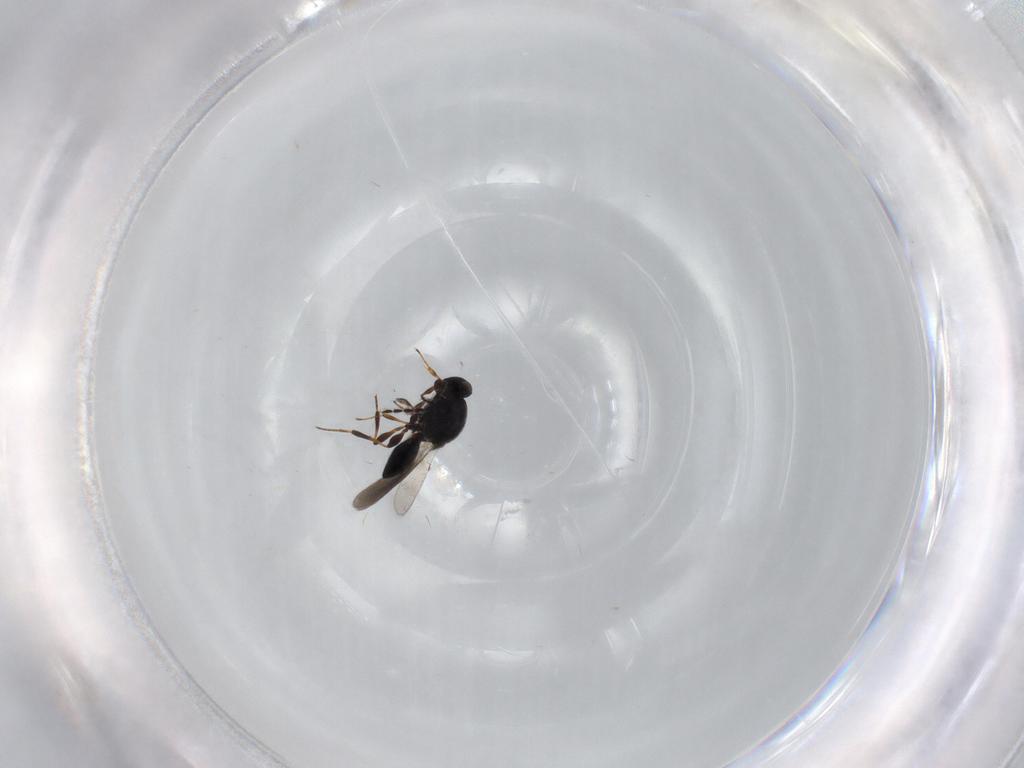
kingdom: Animalia
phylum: Arthropoda
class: Insecta
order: Hymenoptera
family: Platygastridae
